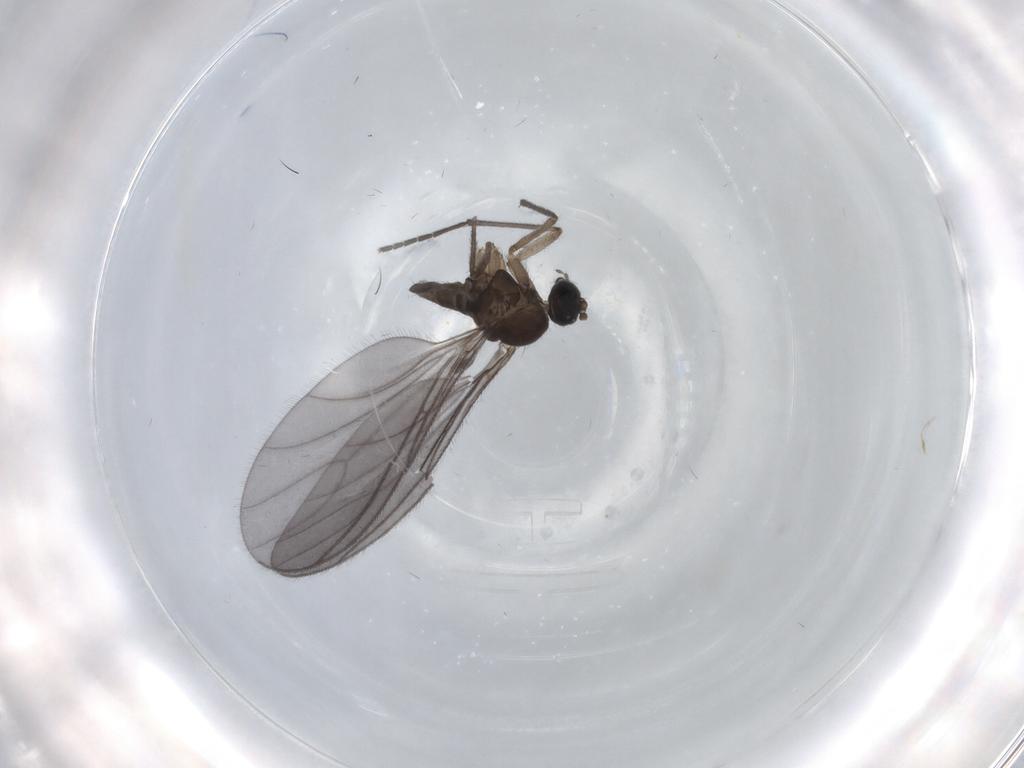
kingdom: Animalia
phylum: Arthropoda
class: Insecta
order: Diptera
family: Sciaridae
